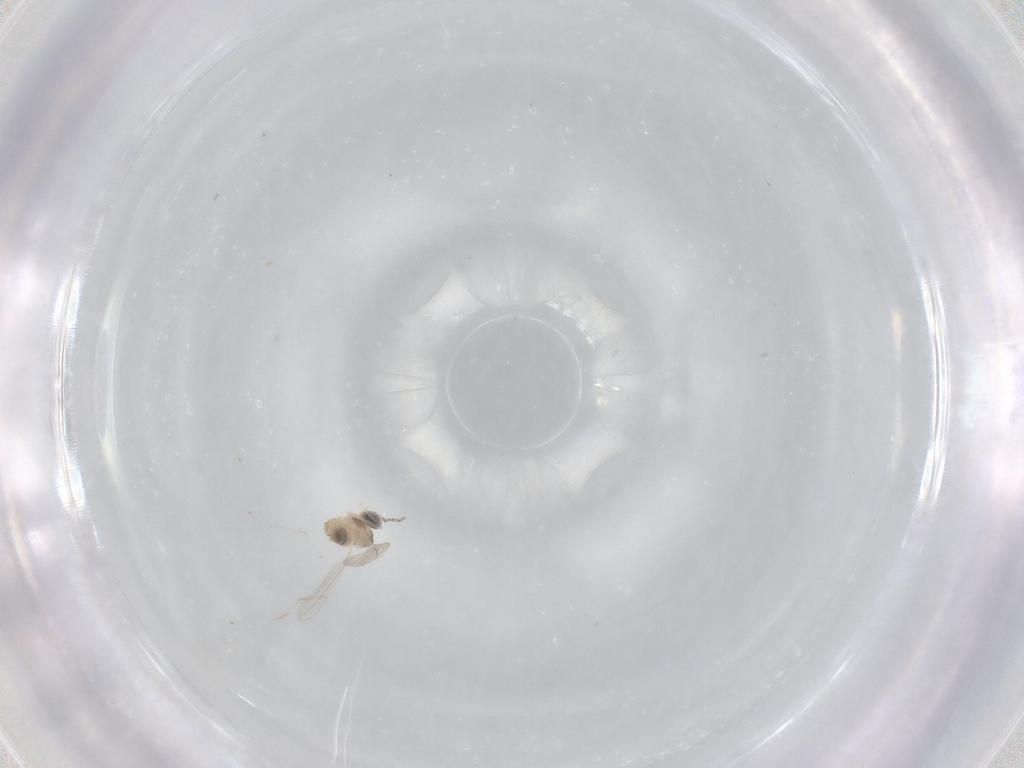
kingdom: Animalia
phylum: Arthropoda
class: Insecta
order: Diptera
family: Cecidomyiidae
